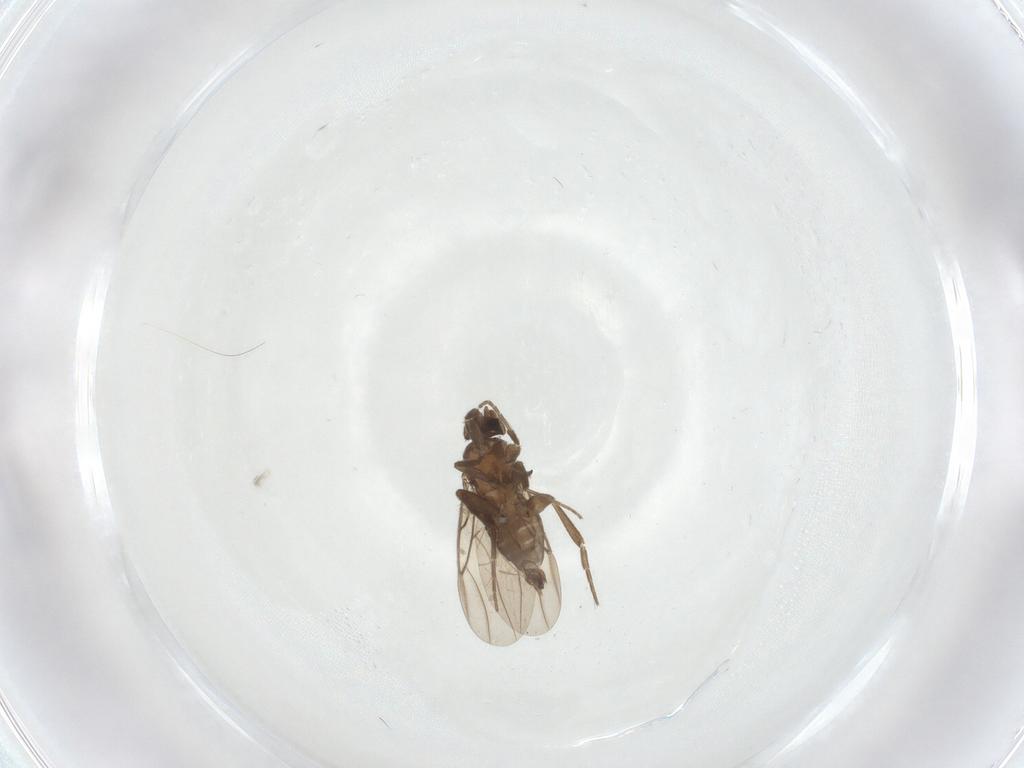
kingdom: Animalia
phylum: Arthropoda
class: Insecta
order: Diptera
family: Phoridae
